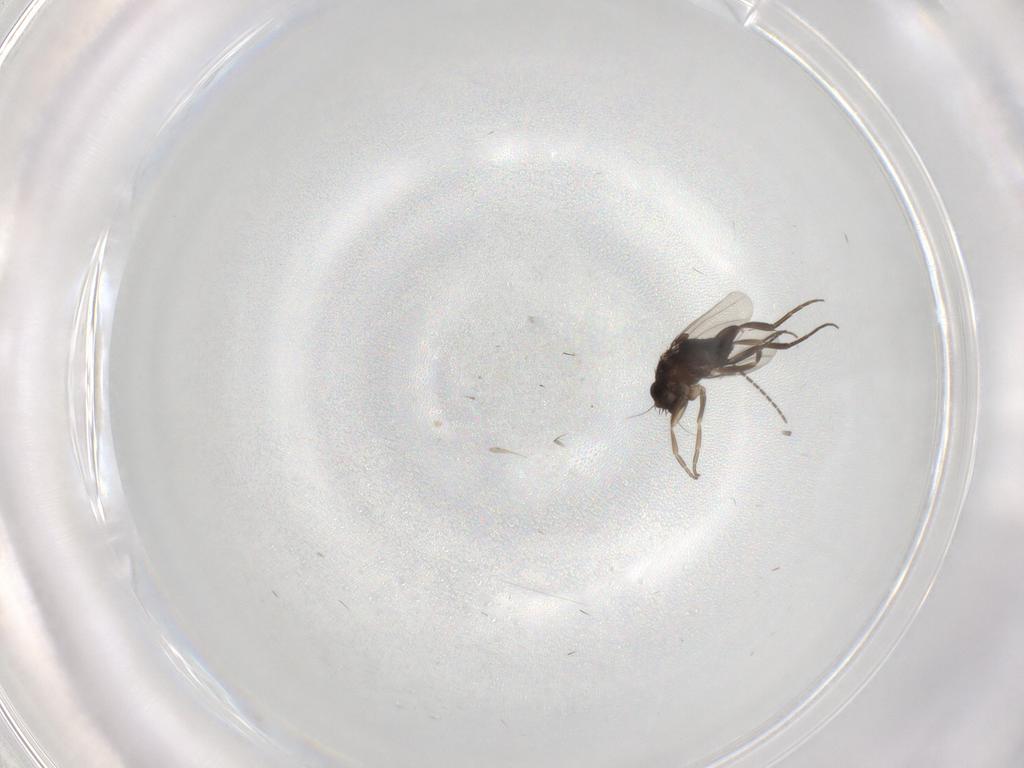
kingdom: Animalia
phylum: Arthropoda
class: Insecta
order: Diptera
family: Phoridae
